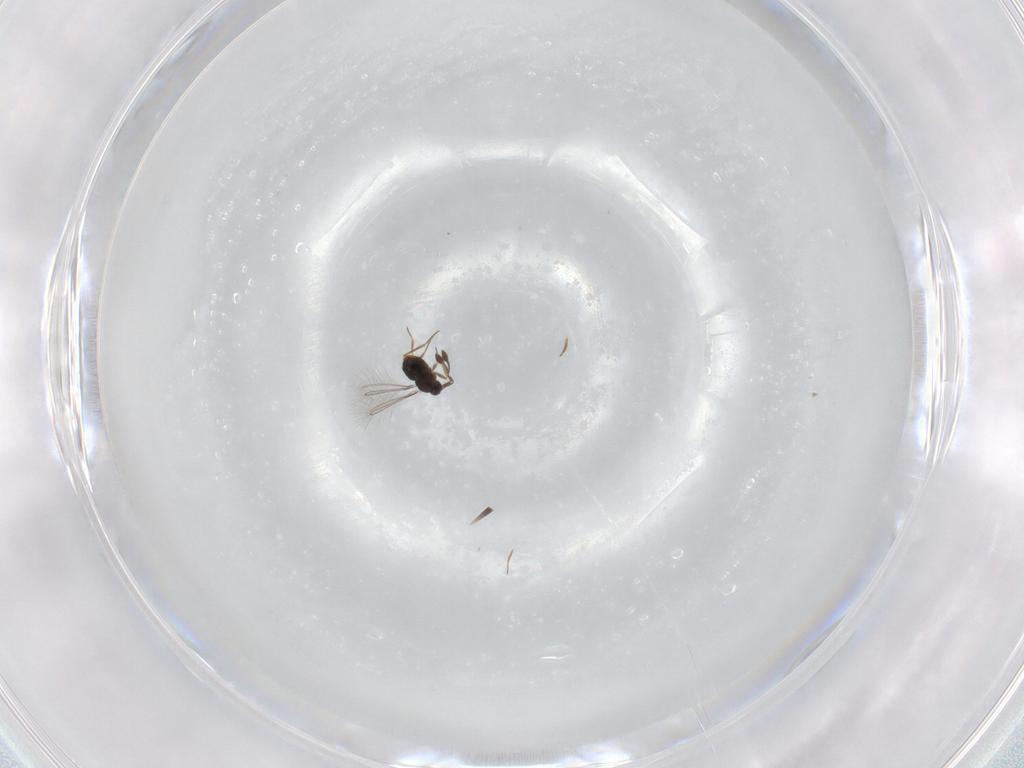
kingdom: Animalia
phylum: Arthropoda
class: Insecta
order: Hymenoptera
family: Eulophidae
